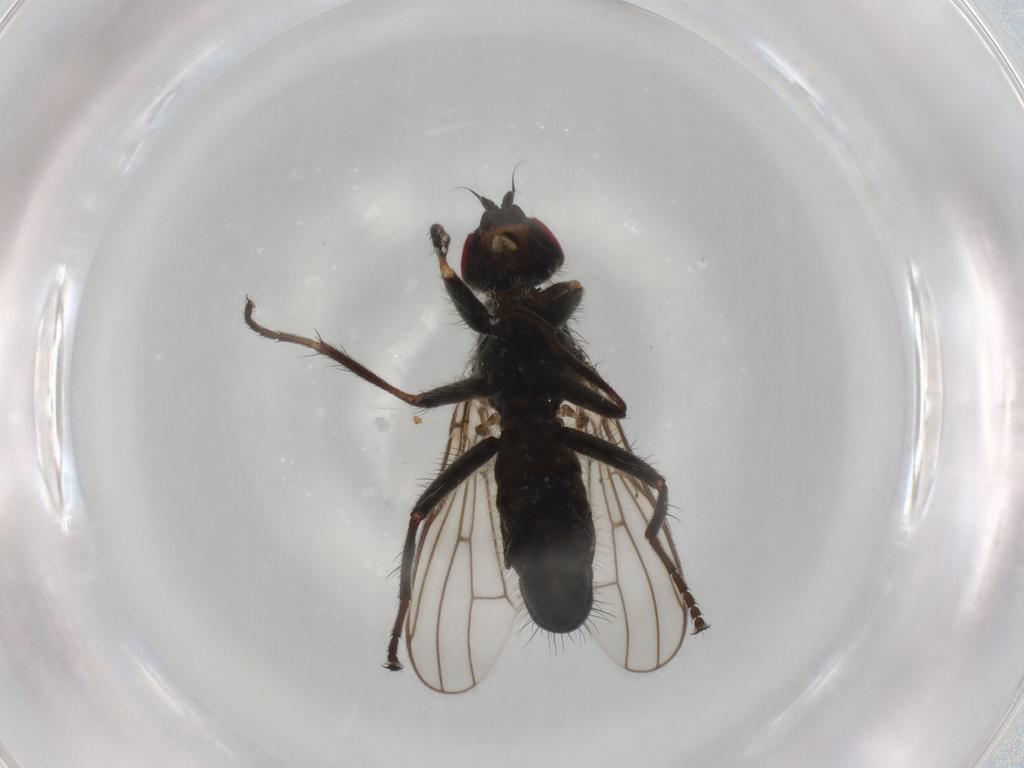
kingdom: Animalia
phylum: Arthropoda
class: Insecta
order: Diptera
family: Scathophagidae
